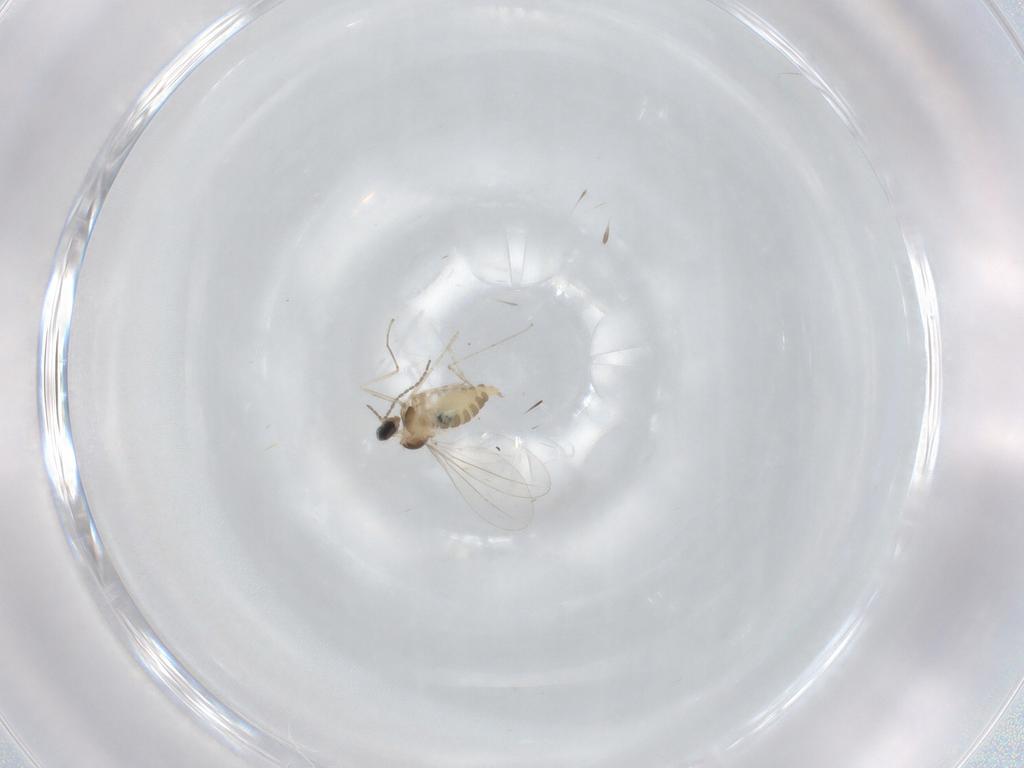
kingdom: Animalia
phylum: Arthropoda
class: Insecta
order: Diptera
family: Cecidomyiidae
